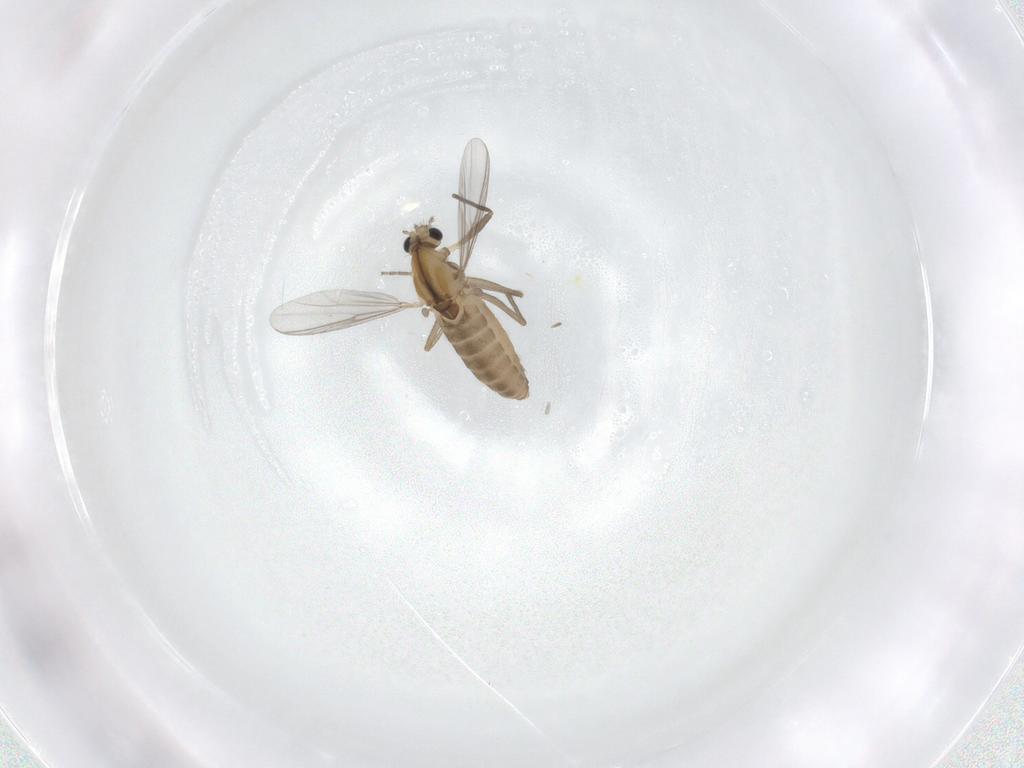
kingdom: Animalia
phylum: Arthropoda
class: Insecta
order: Diptera
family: Chironomidae
